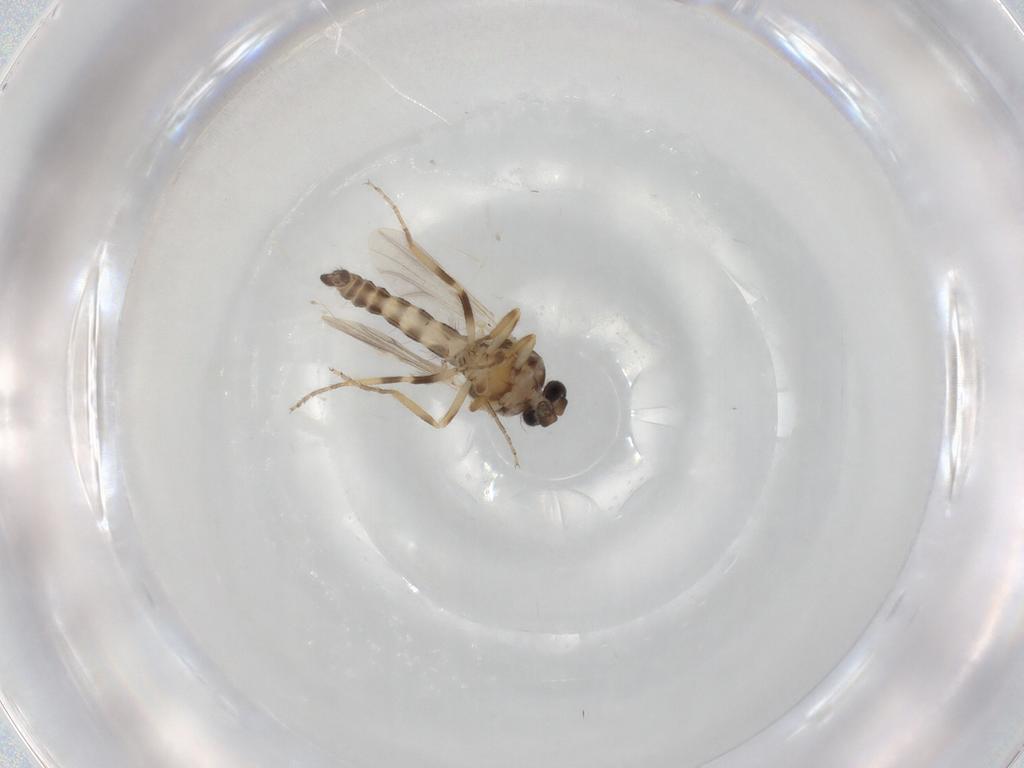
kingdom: Animalia
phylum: Arthropoda
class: Insecta
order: Diptera
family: Ceratopogonidae
